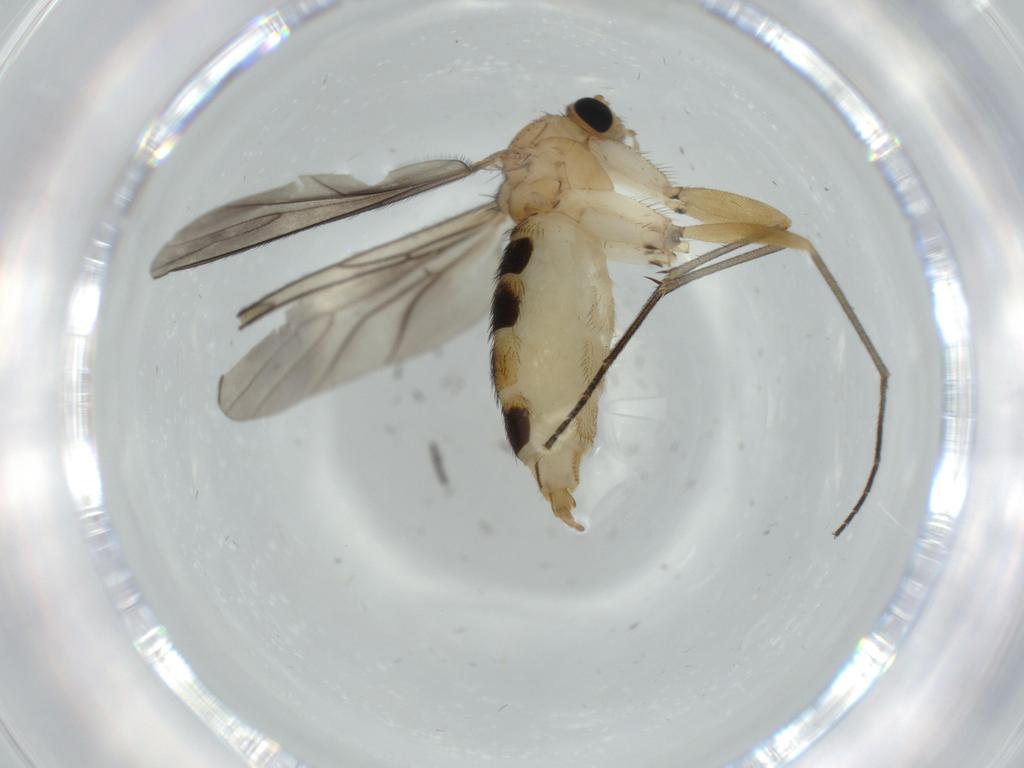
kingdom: Animalia
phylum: Arthropoda
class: Insecta
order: Diptera
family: Sciaridae
